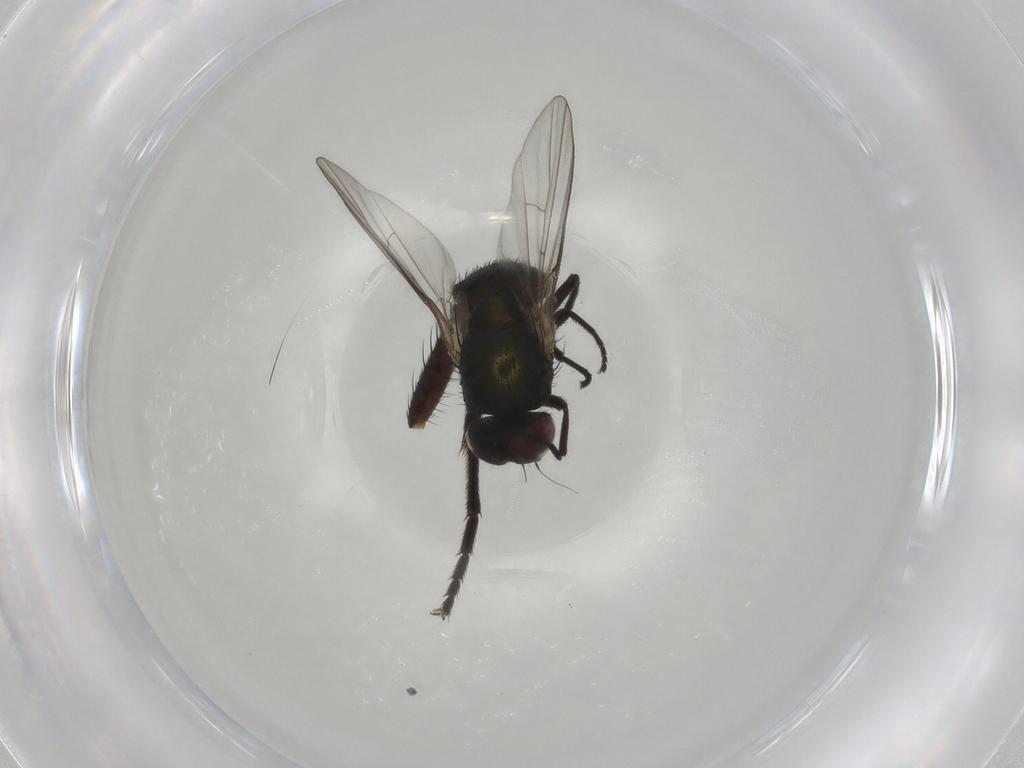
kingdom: Animalia
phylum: Arthropoda
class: Insecta
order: Diptera
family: Agromyzidae
